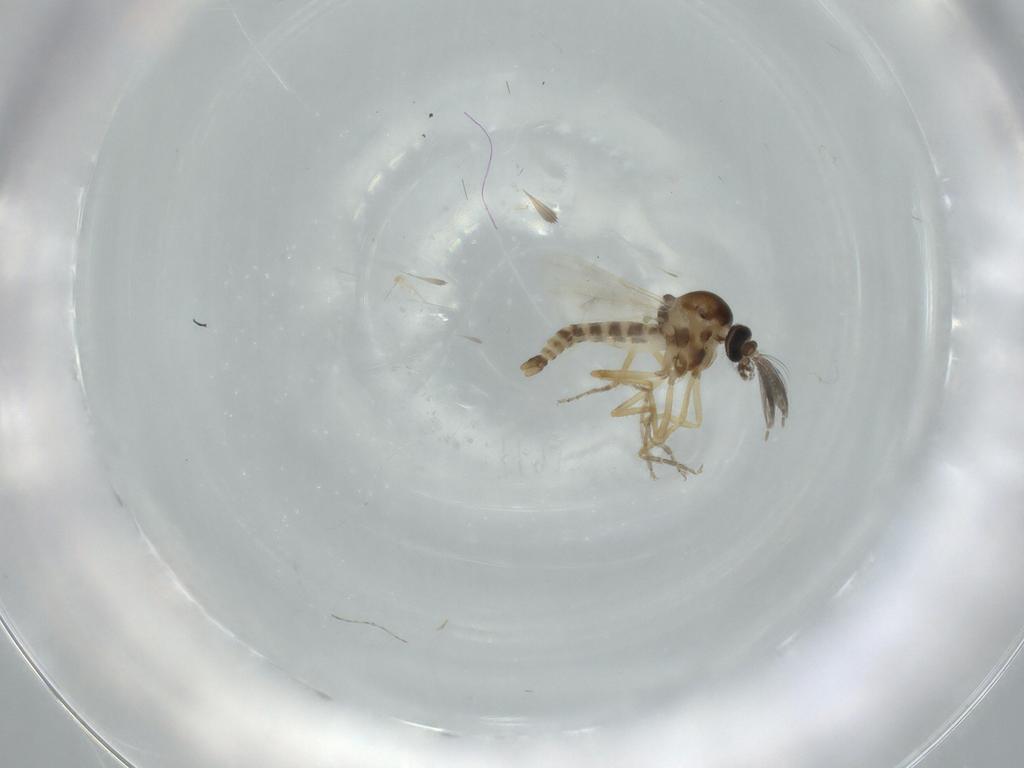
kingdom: Animalia
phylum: Arthropoda
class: Insecta
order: Diptera
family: Ceratopogonidae
